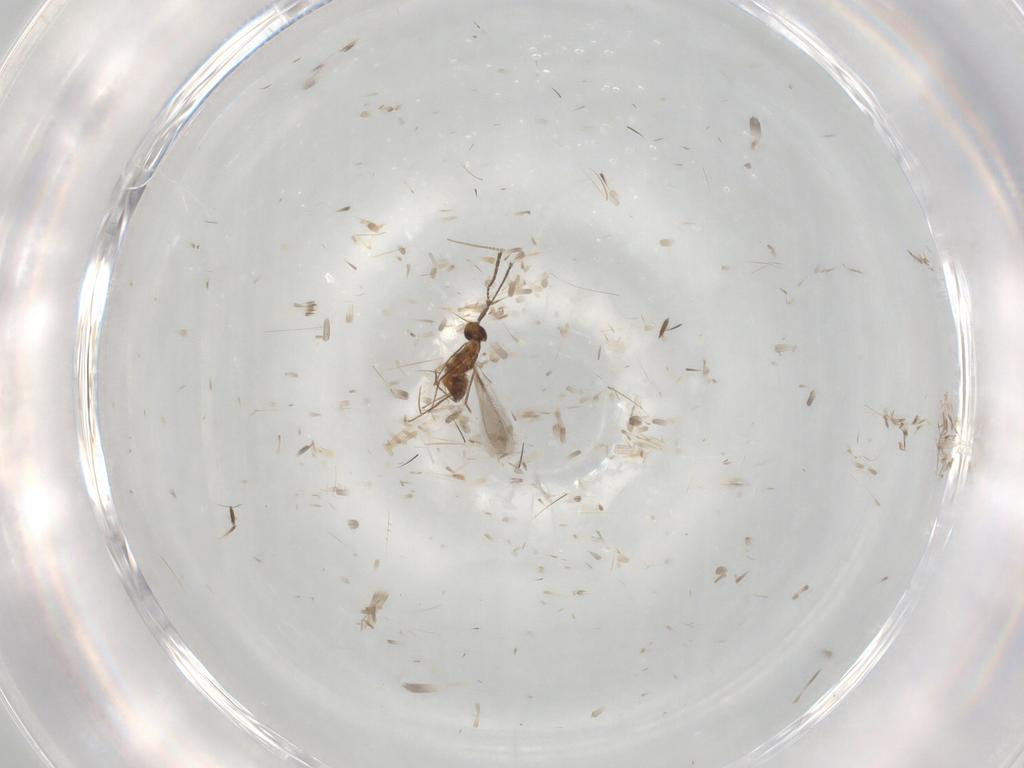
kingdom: Animalia
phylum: Arthropoda
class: Insecta
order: Hymenoptera
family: Mymaridae
